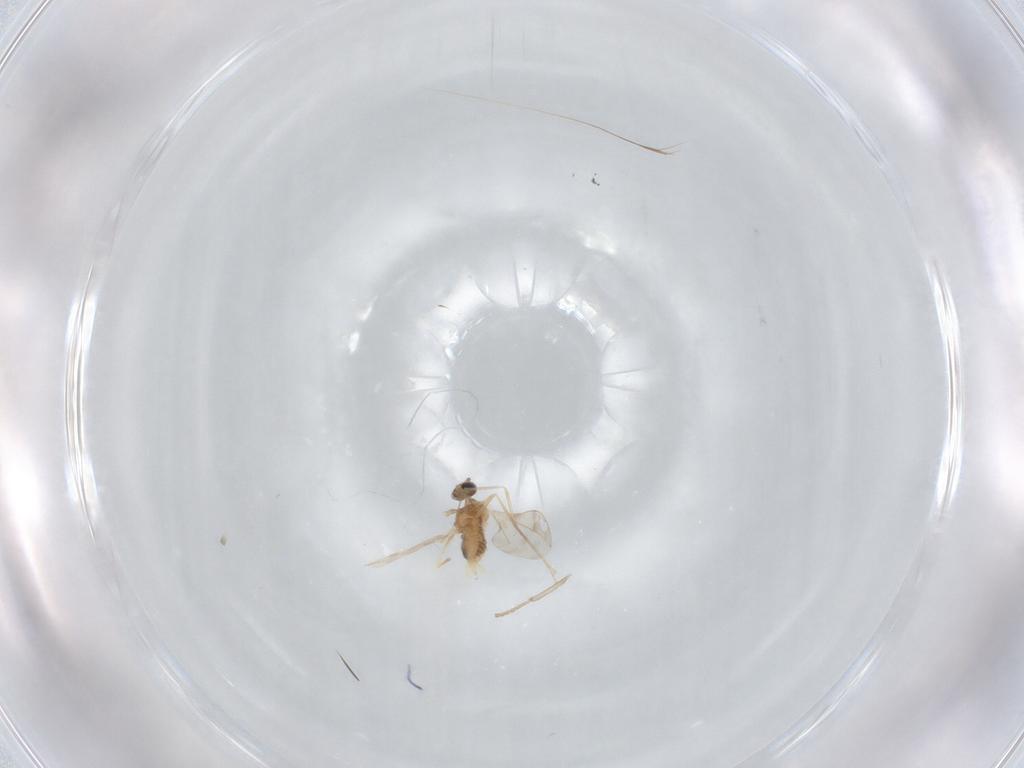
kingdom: Animalia
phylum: Arthropoda
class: Insecta
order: Diptera
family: Cecidomyiidae
